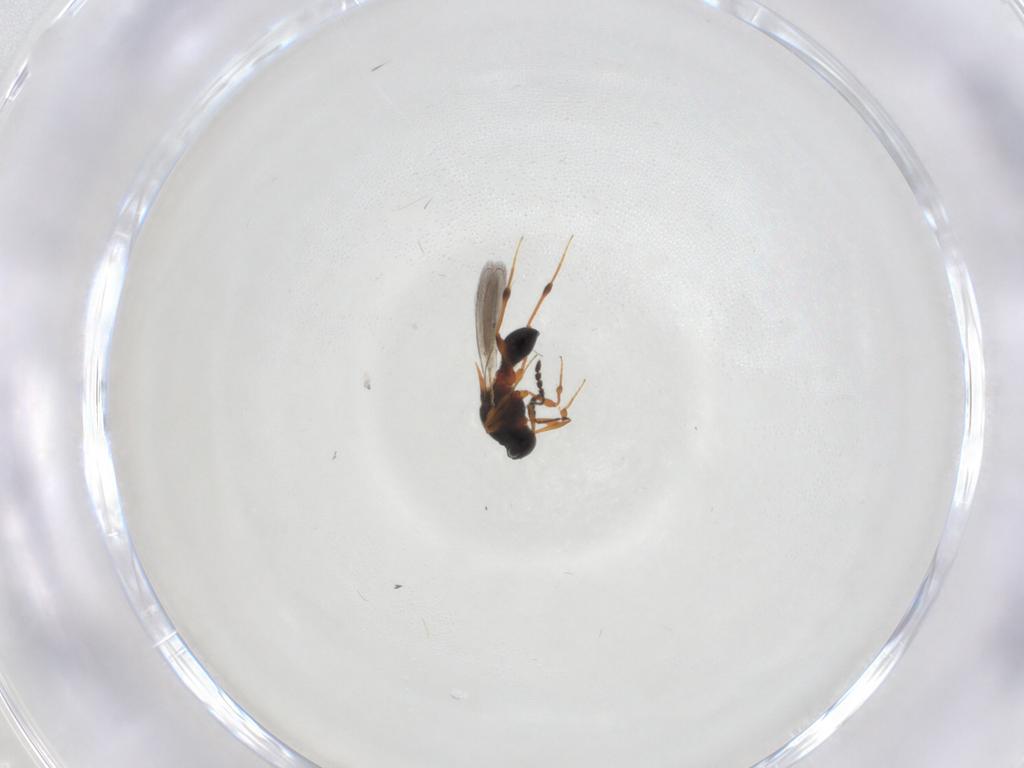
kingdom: Animalia
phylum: Arthropoda
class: Insecta
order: Hymenoptera
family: Platygastridae
